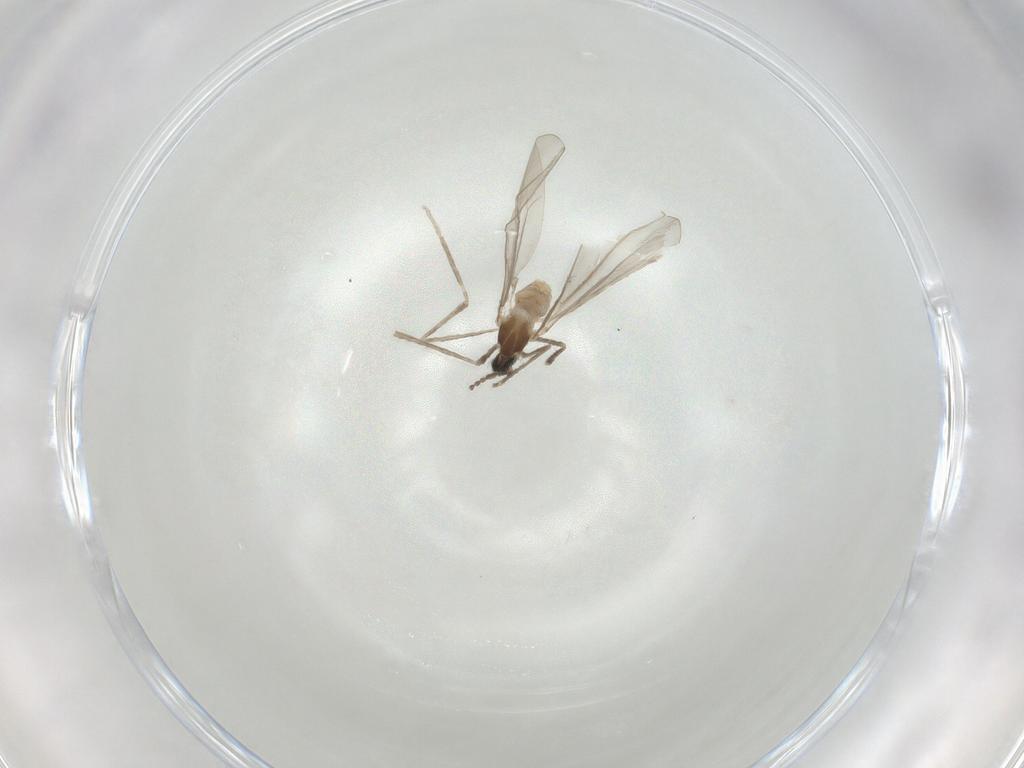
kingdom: Animalia
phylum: Arthropoda
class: Insecta
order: Diptera
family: Cecidomyiidae
